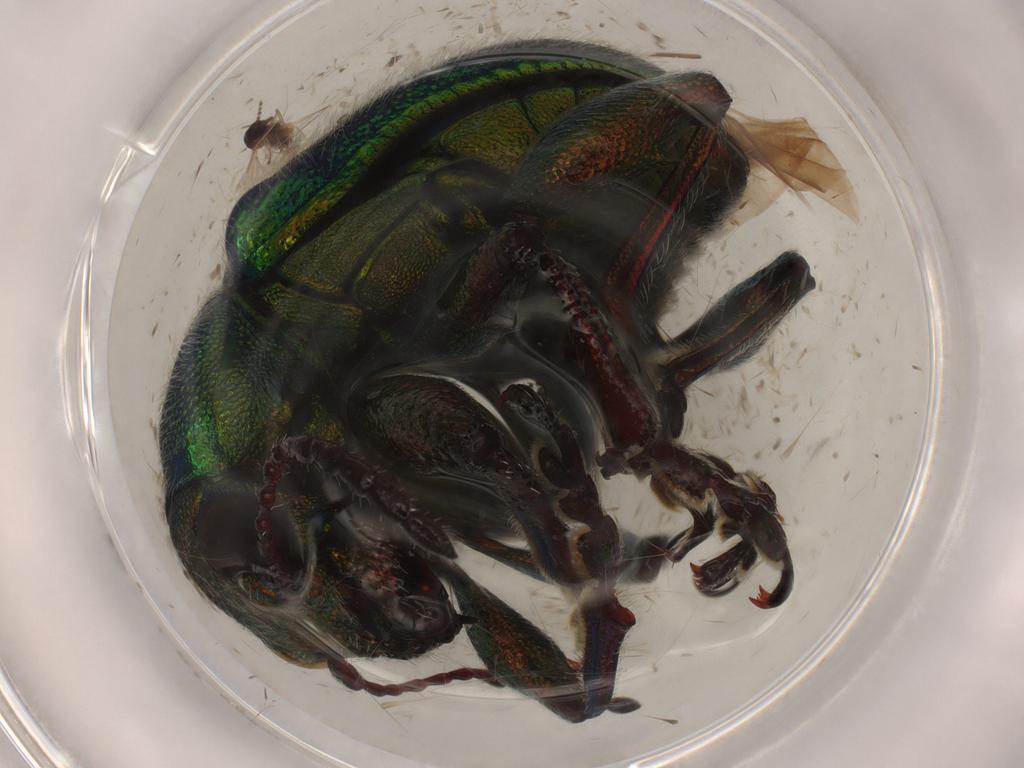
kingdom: Animalia
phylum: Arthropoda
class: Insecta
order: Coleoptera
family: Chrysomelidae
